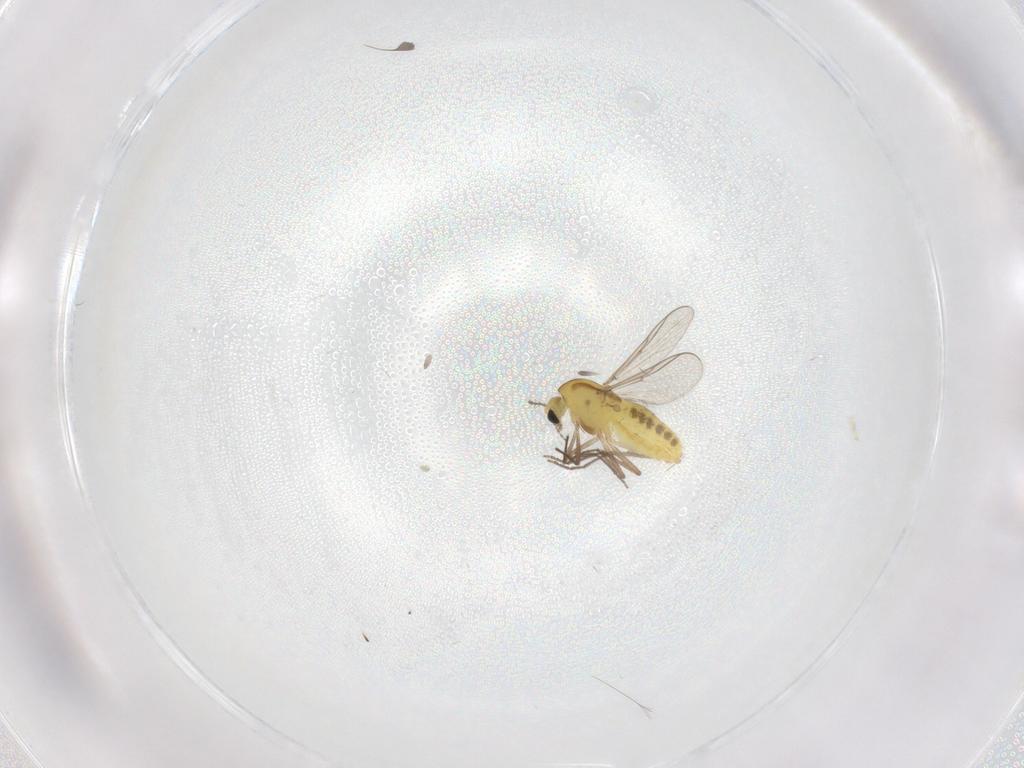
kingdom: Animalia
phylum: Arthropoda
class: Insecta
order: Diptera
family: Chironomidae
